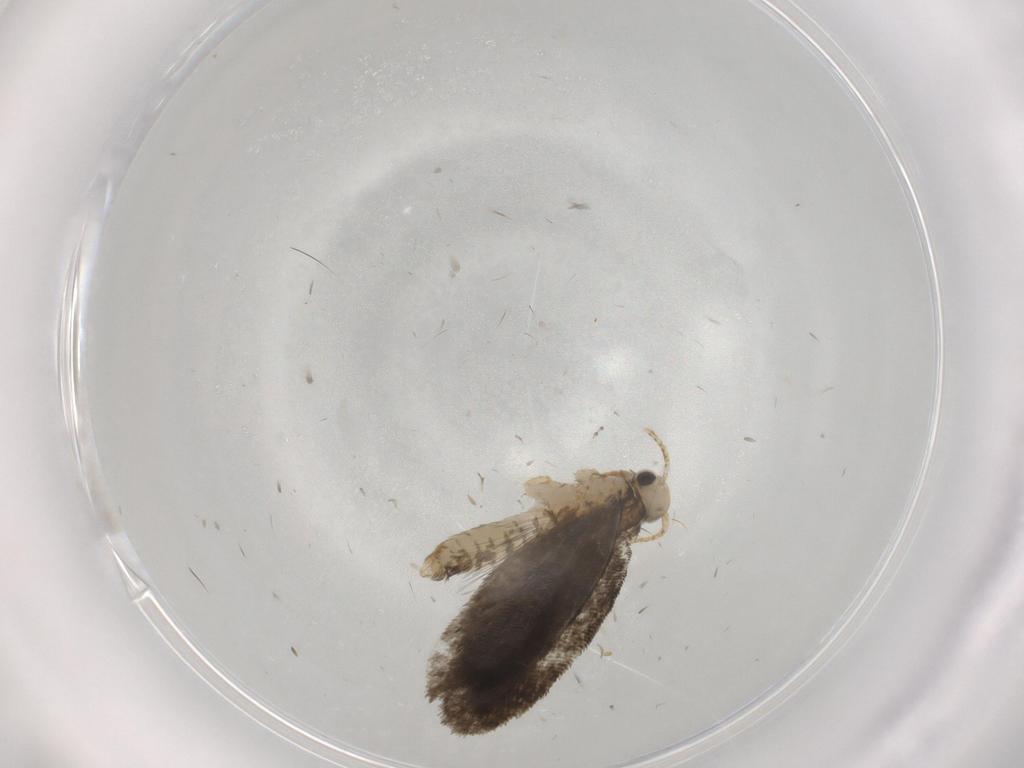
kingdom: Animalia
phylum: Arthropoda
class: Insecta
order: Lepidoptera
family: Psychidae
